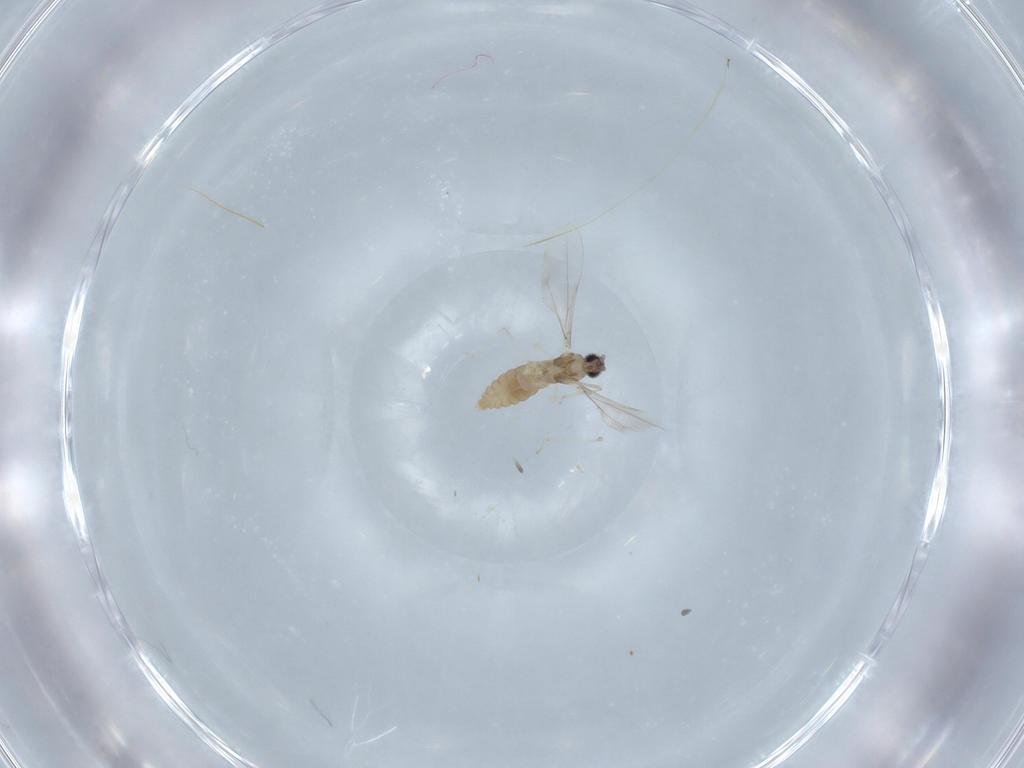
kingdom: Animalia
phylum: Arthropoda
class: Insecta
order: Diptera
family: Cecidomyiidae
